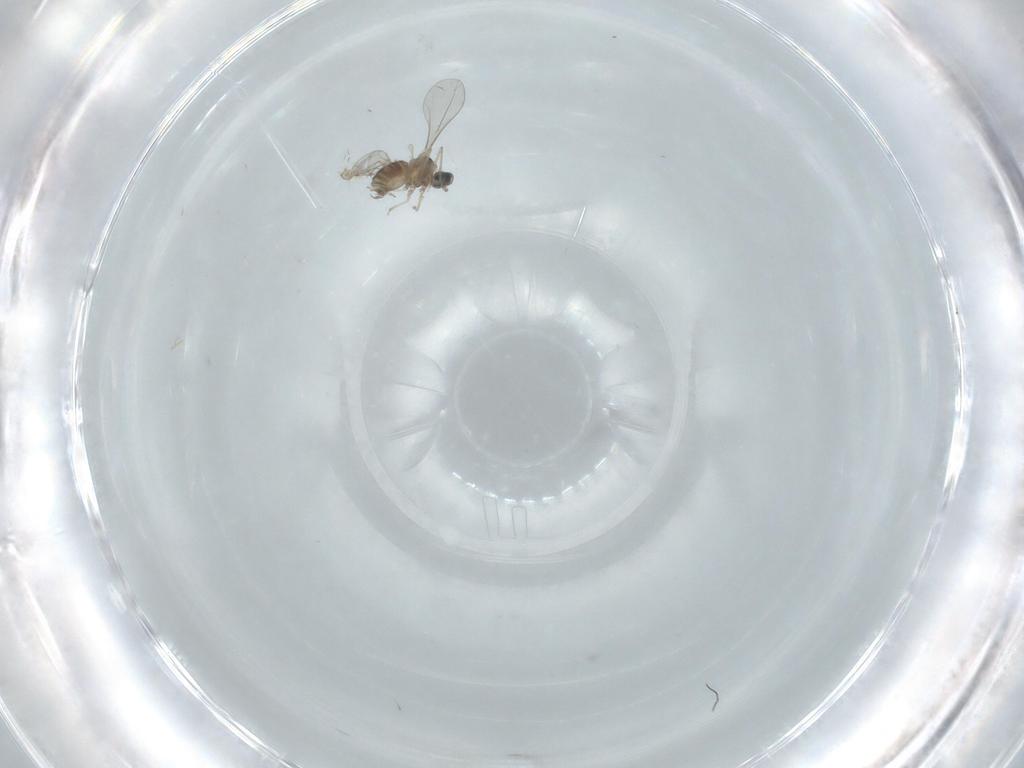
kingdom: Animalia
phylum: Arthropoda
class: Insecta
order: Diptera
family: Chironomidae
